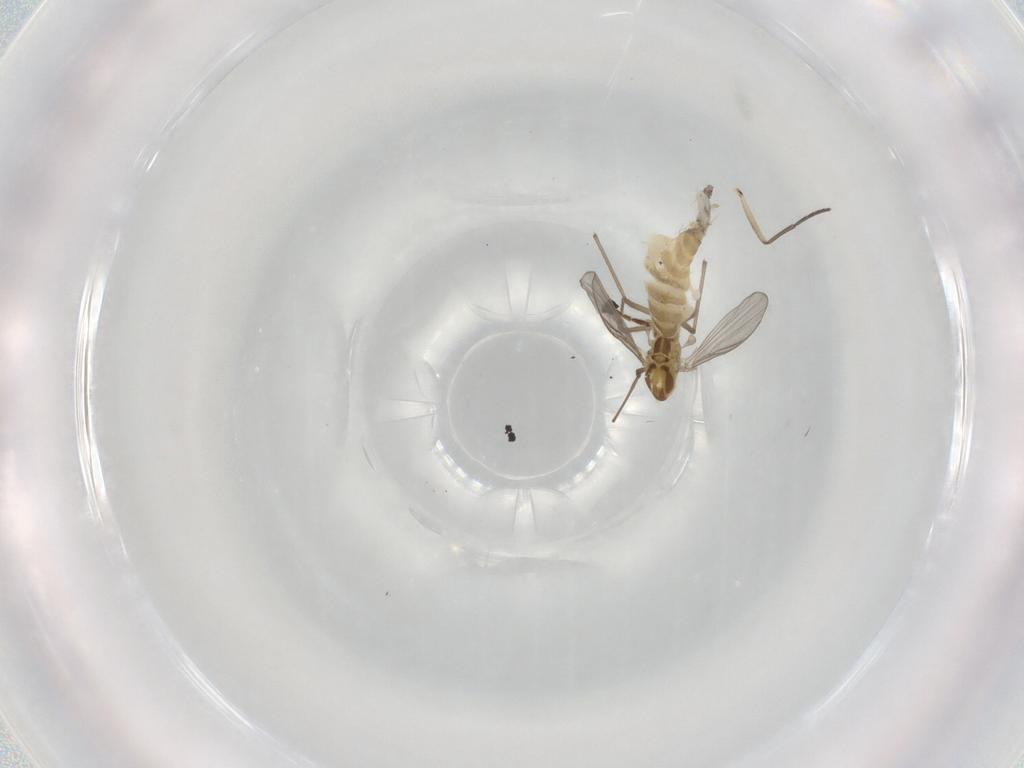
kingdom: Animalia
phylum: Arthropoda
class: Insecta
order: Diptera
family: Chironomidae
